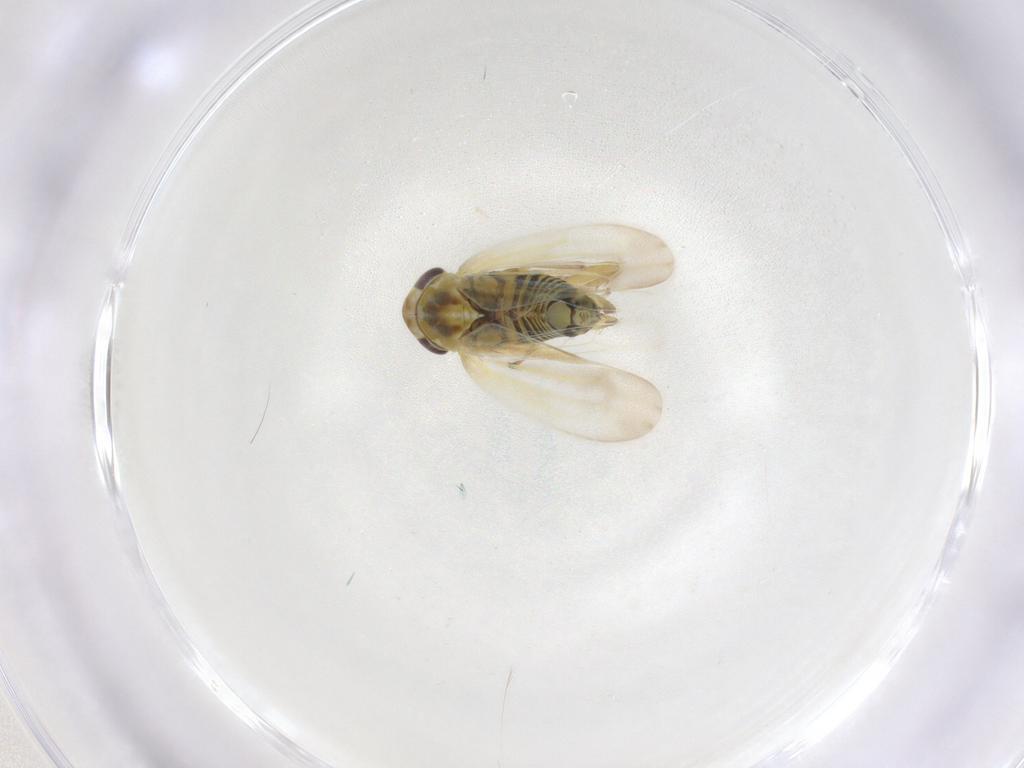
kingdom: Animalia
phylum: Arthropoda
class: Insecta
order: Hemiptera
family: Cicadellidae
